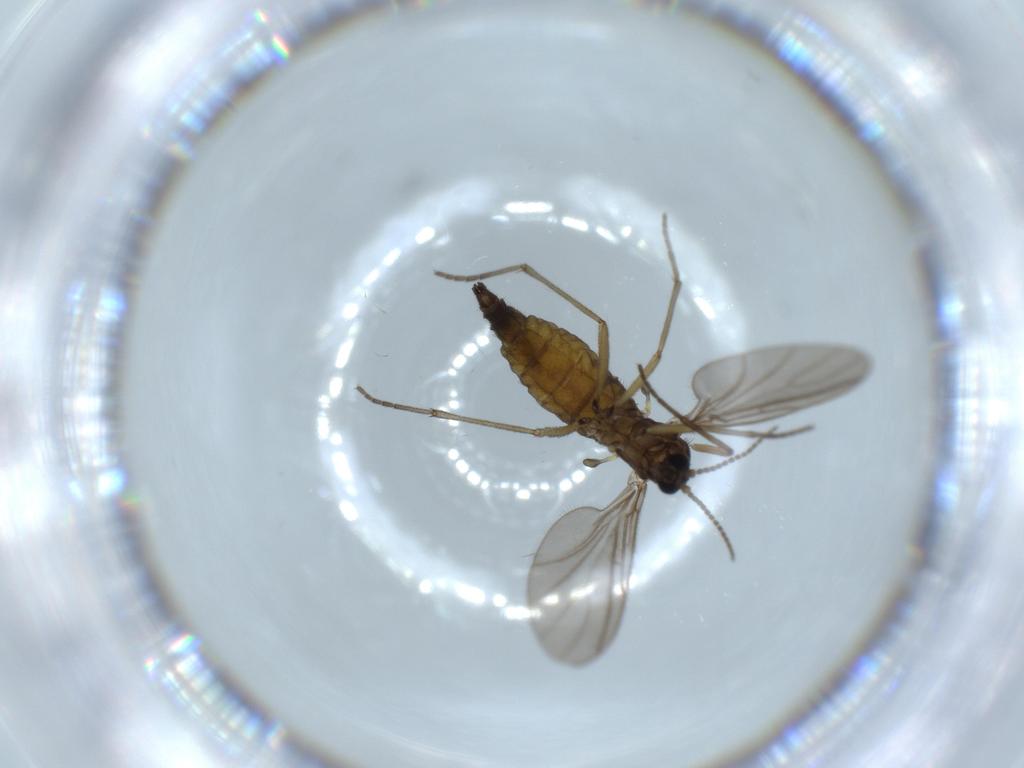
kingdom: Animalia
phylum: Arthropoda
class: Insecta
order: Diptera
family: Sciaridae
